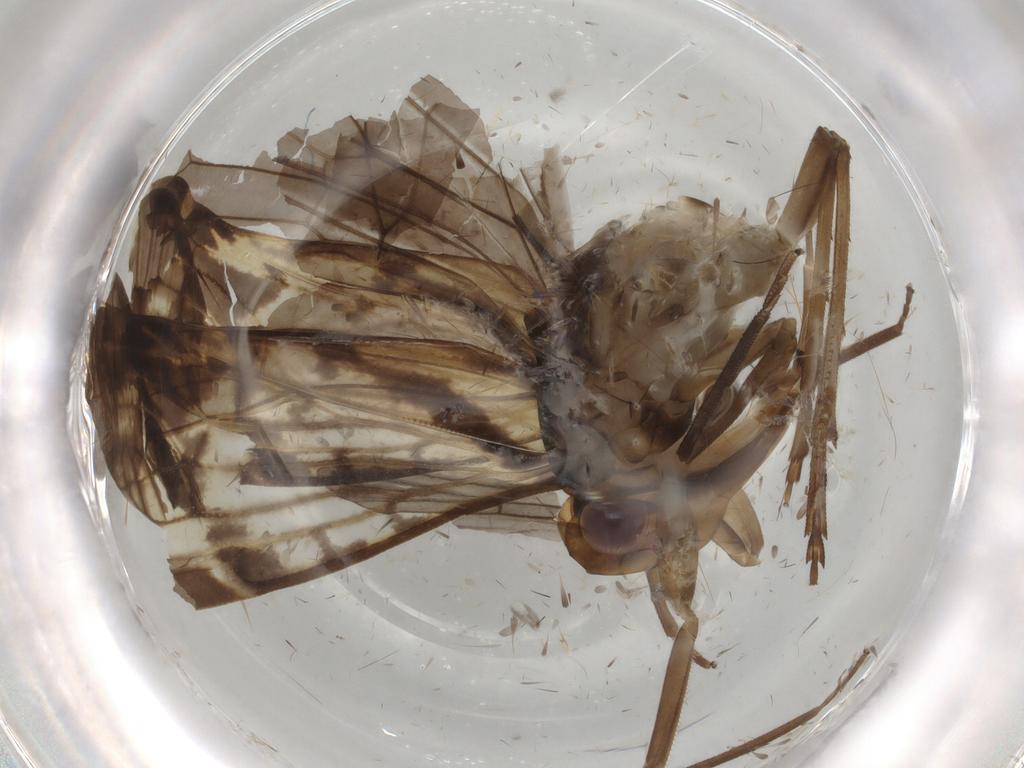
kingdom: Animalia
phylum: Arthropoda
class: Insecta
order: Hemiptera
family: Cixiidae
